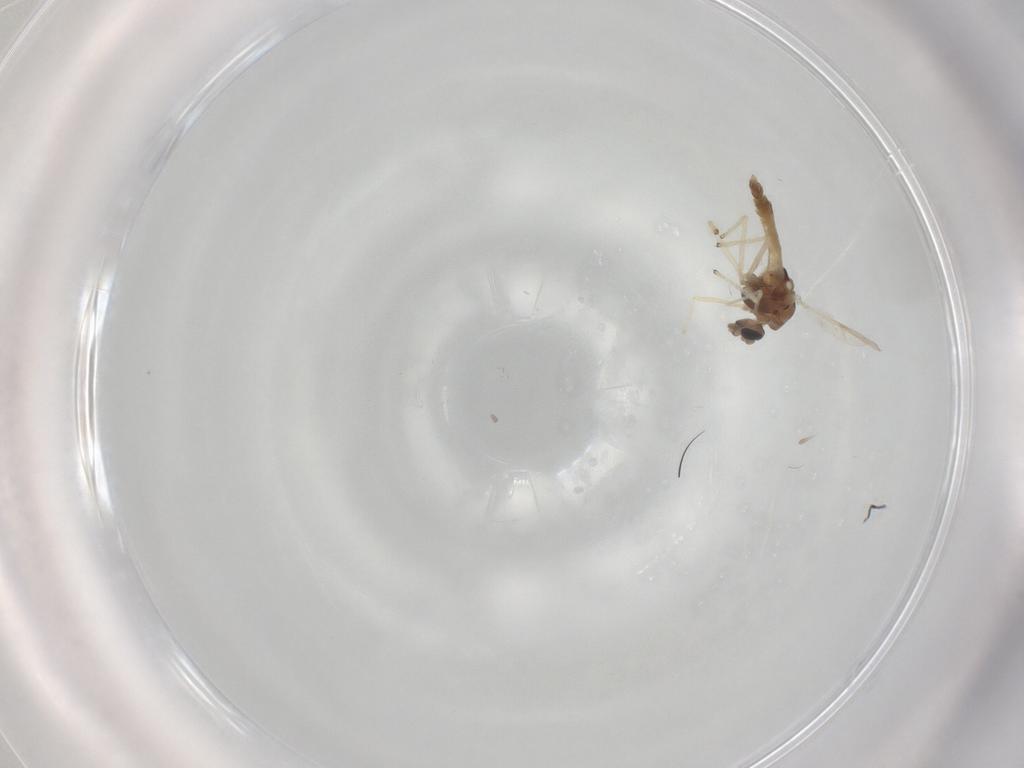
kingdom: Animalia
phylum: Arthropoda
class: Insecta
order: Diptera
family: Chironomidae
